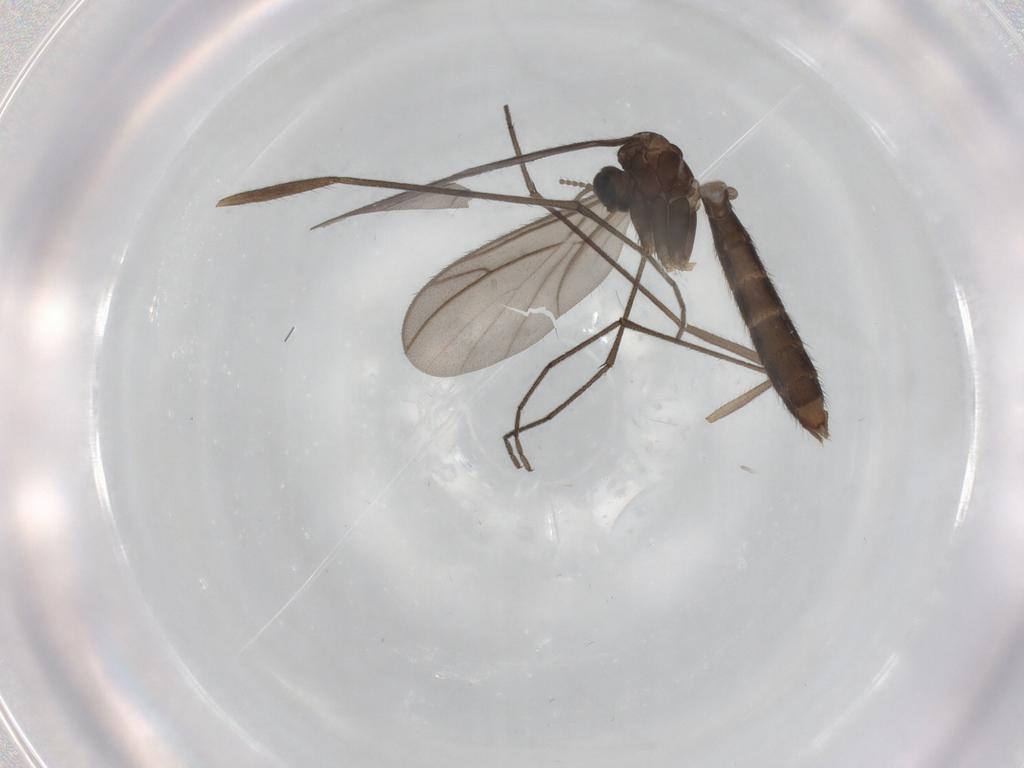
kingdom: Animalia
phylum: Arthropoda
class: Insecta
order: Diptera
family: Keroplatidae
